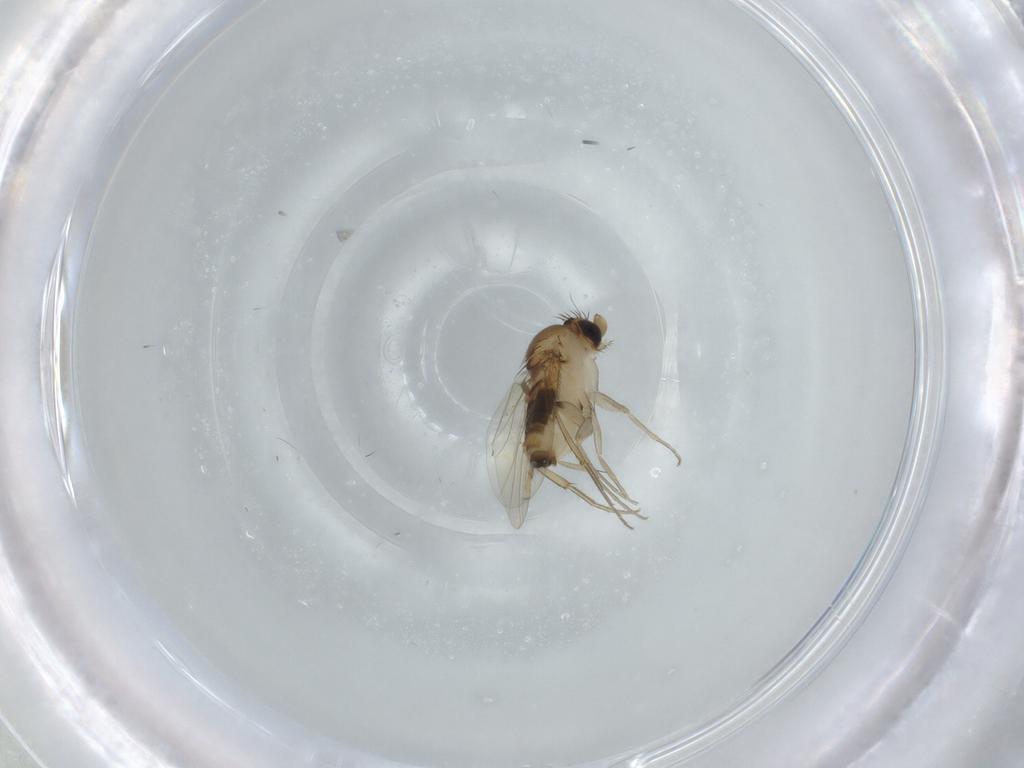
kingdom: Animalia
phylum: Arthropoda
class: Insecta
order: Diptera
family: Phoridae
